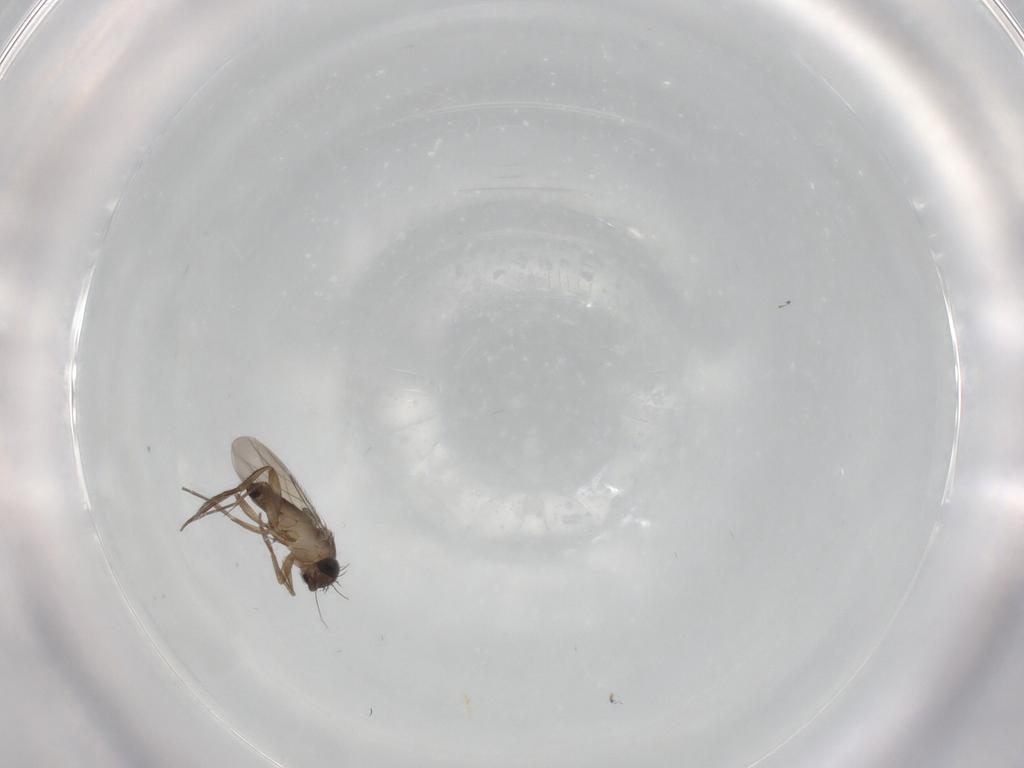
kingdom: Animalia
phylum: Arthropoda
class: Insecta
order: Diptera
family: Phoridae
